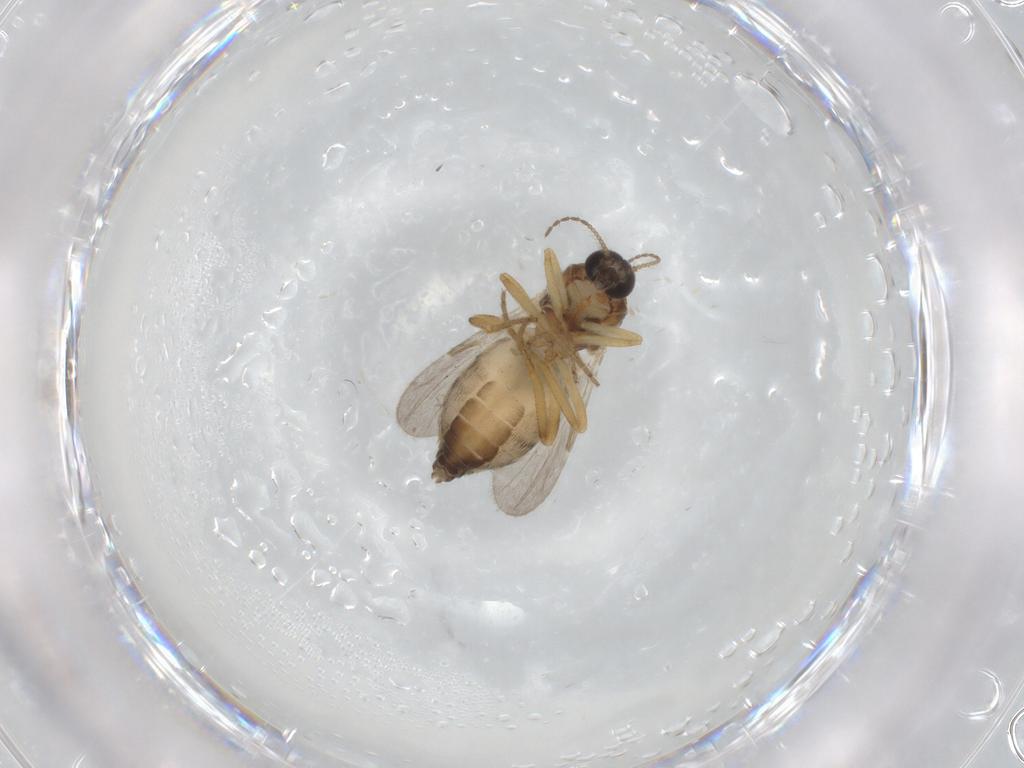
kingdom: Animalia
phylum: Arthropoda
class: Insecta
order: Diptera
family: Ceratopogonidae
